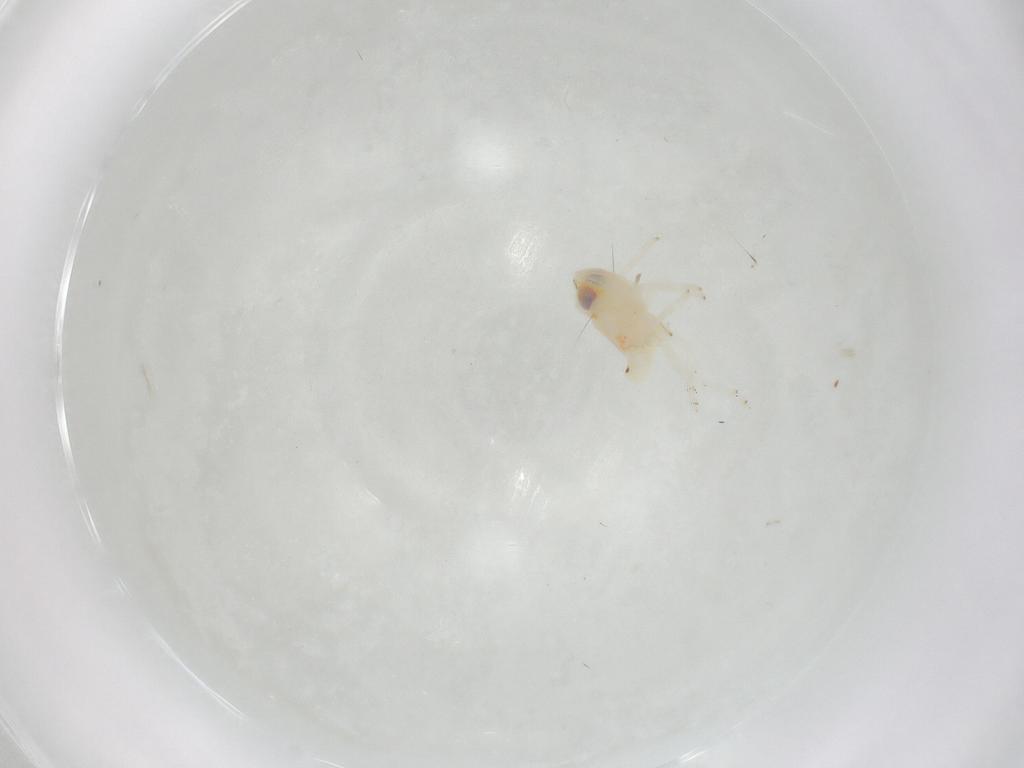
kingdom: Animalia
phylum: Arthropoda
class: Insecta
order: Hemiptera
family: Nogodinidae
